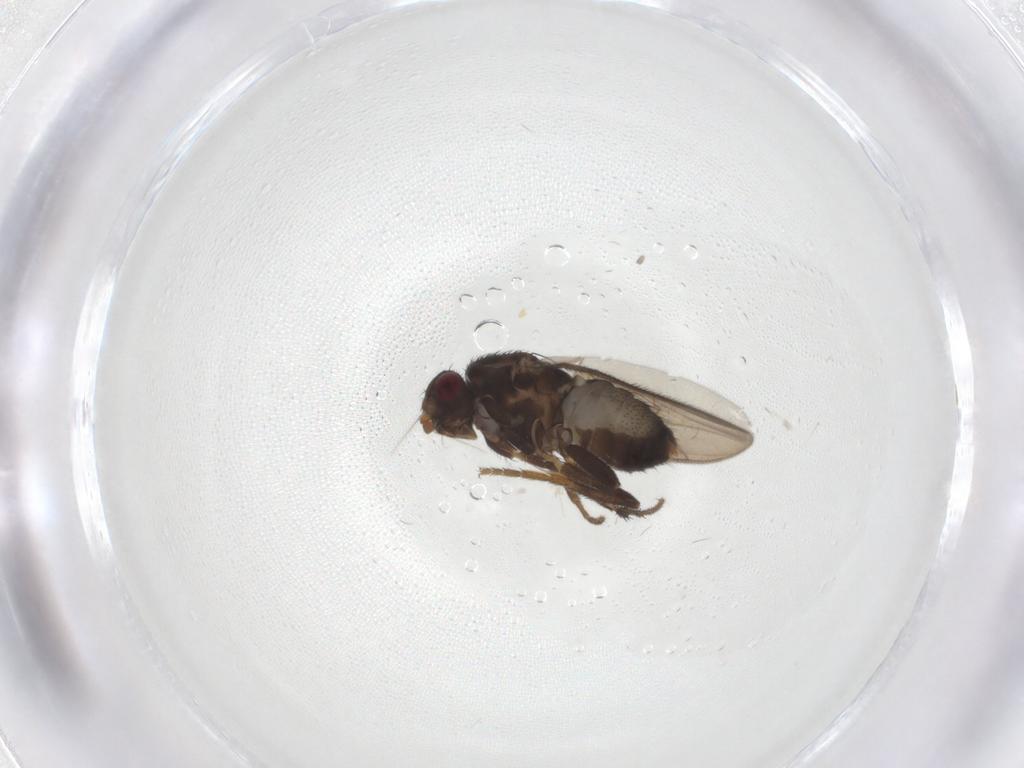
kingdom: Animalia
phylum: Arthropoda
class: Insecta
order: Diptera
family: Sphaeroceridae
